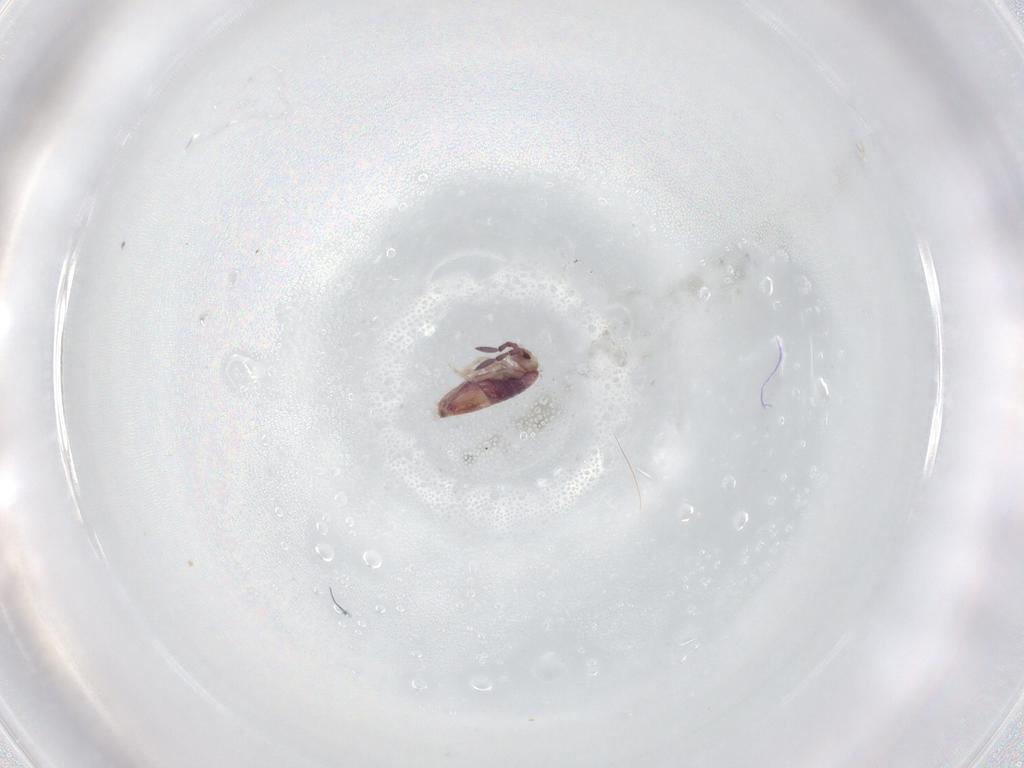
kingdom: Animalia
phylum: Arthropoda
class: Collembola
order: Entomobryomorpha
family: Entomobryidae
